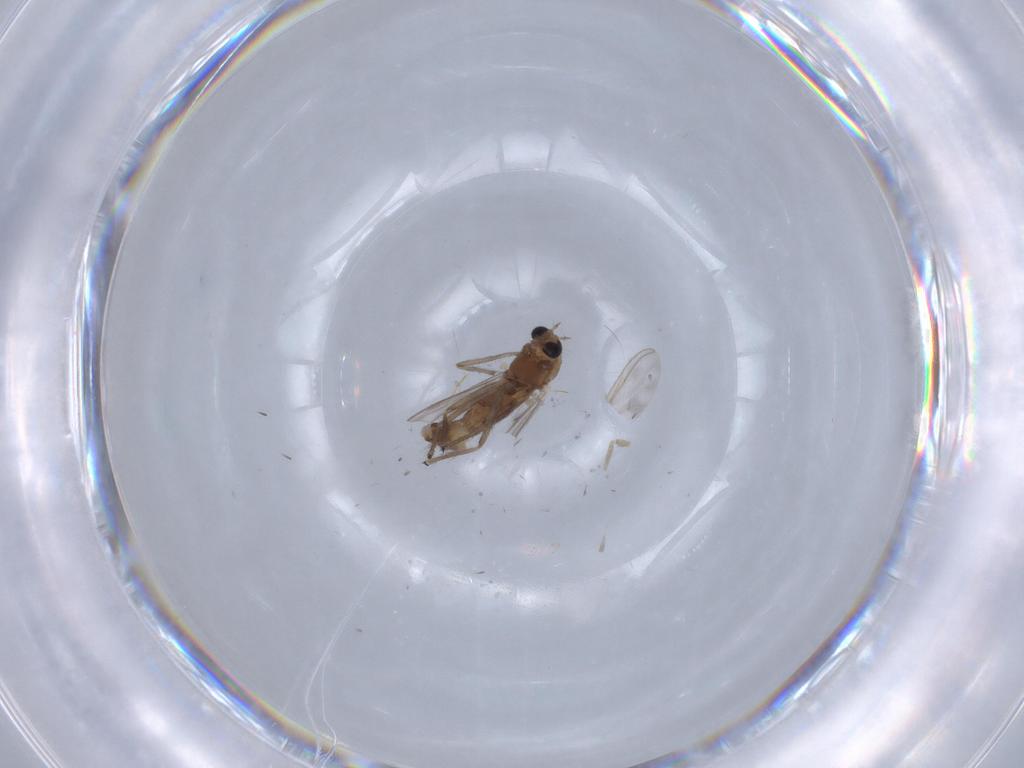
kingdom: Animalia
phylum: Arthropoda
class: Insecta
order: Diptera
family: Chironomidae
